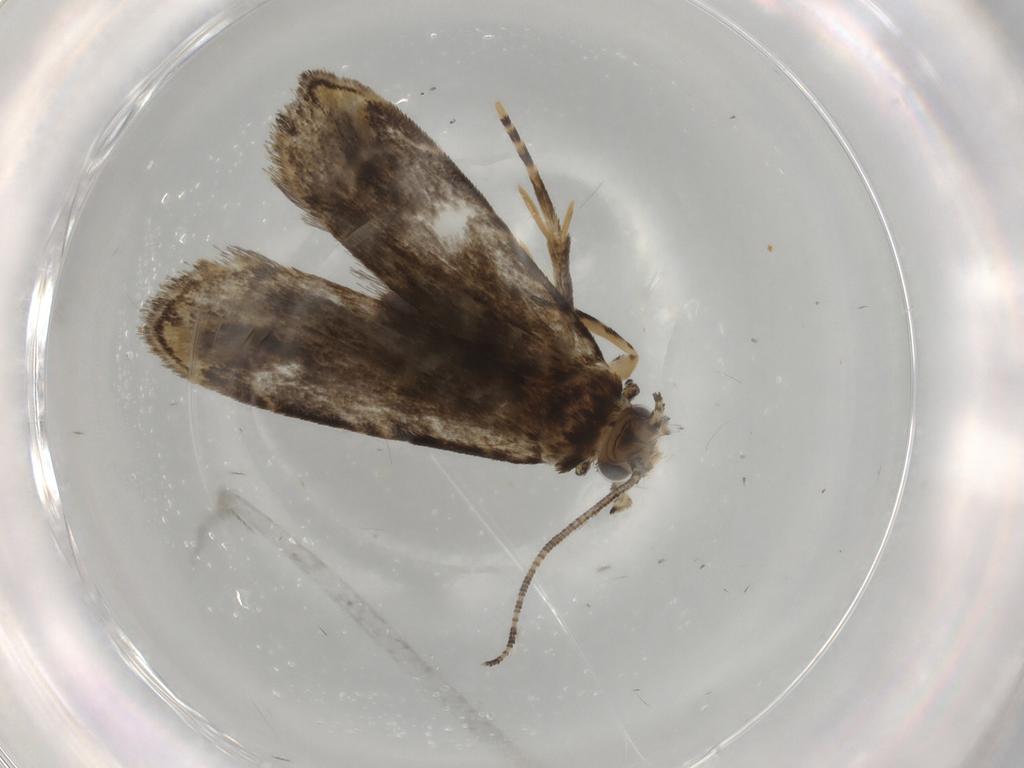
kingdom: Animalia
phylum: Arthropoda
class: Insecta
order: Lepidoptera
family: Tineidae
